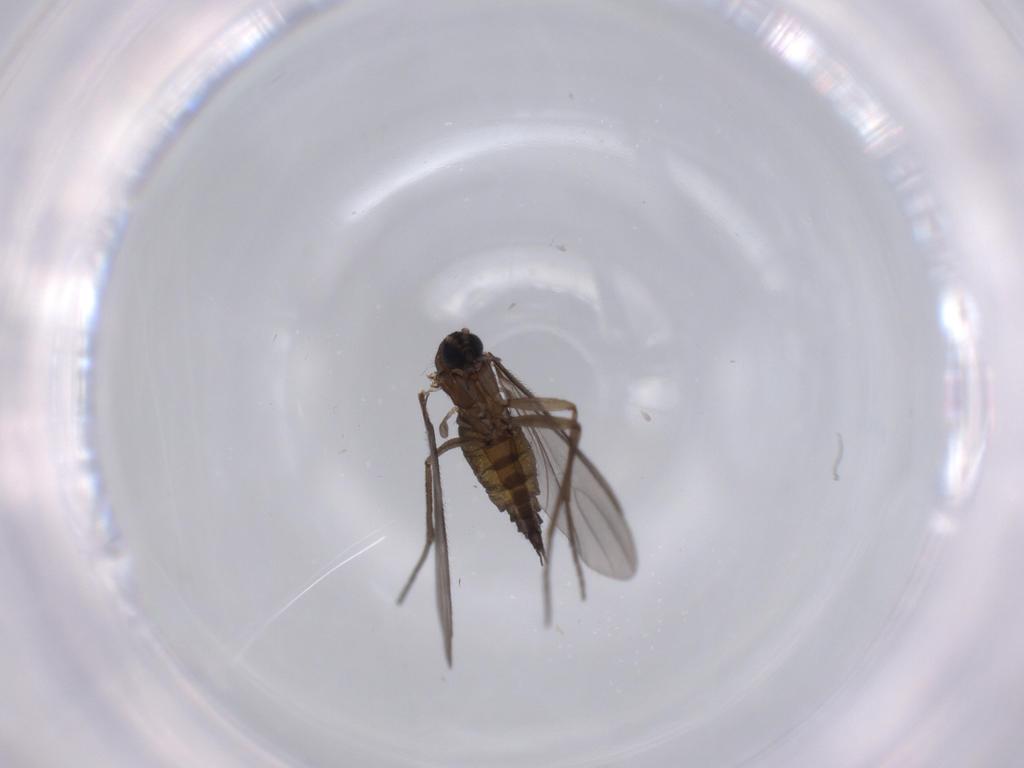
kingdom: Animalia
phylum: Arthropoda
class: Insecta
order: Diptera
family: Sciaridae
